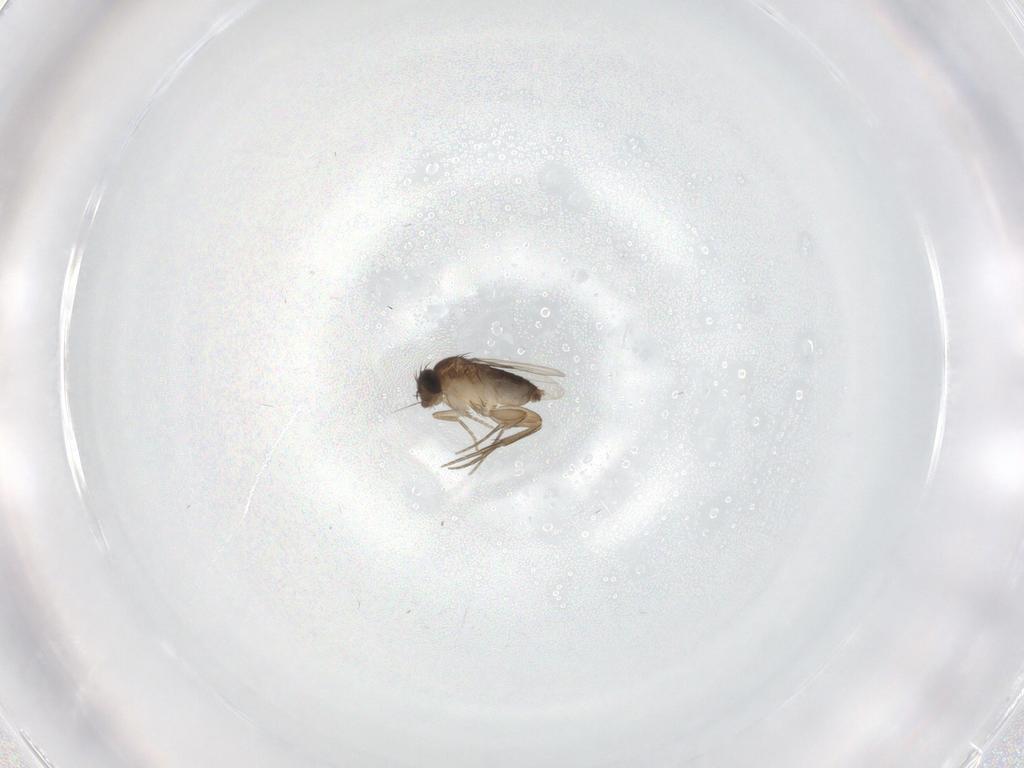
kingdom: Animalia
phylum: Arthropoda
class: Insecta
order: Diptera
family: Phoridae
